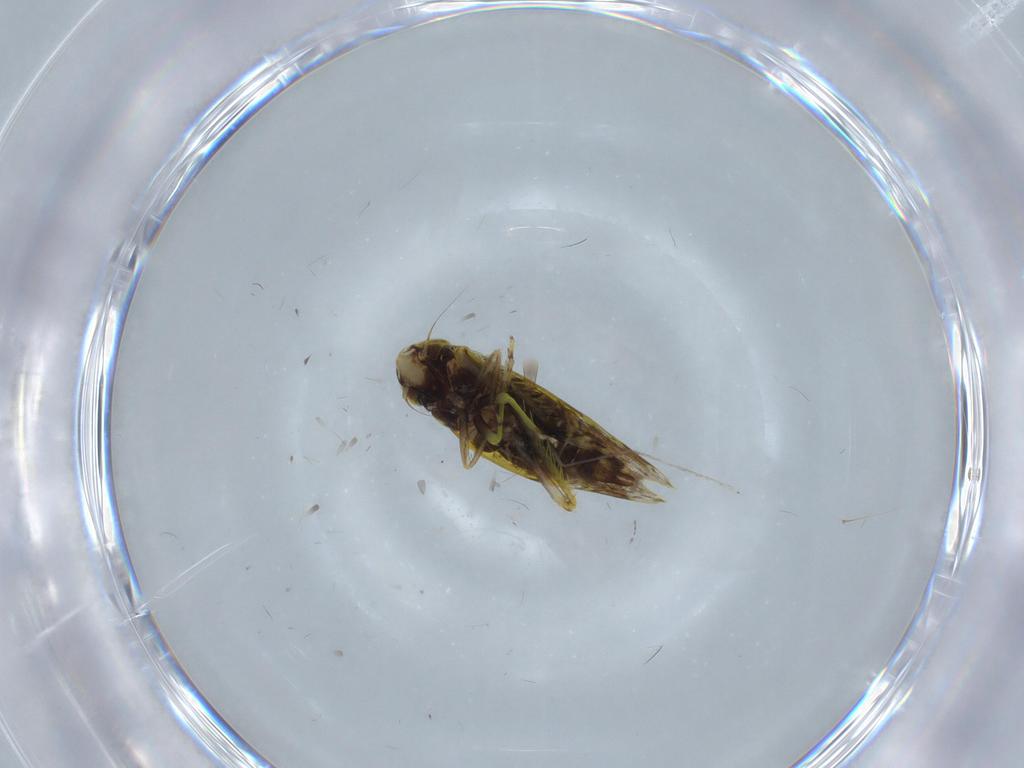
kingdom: Animalia
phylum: Arthropoda
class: Insecta
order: Hemiptera
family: Cicadellidae
